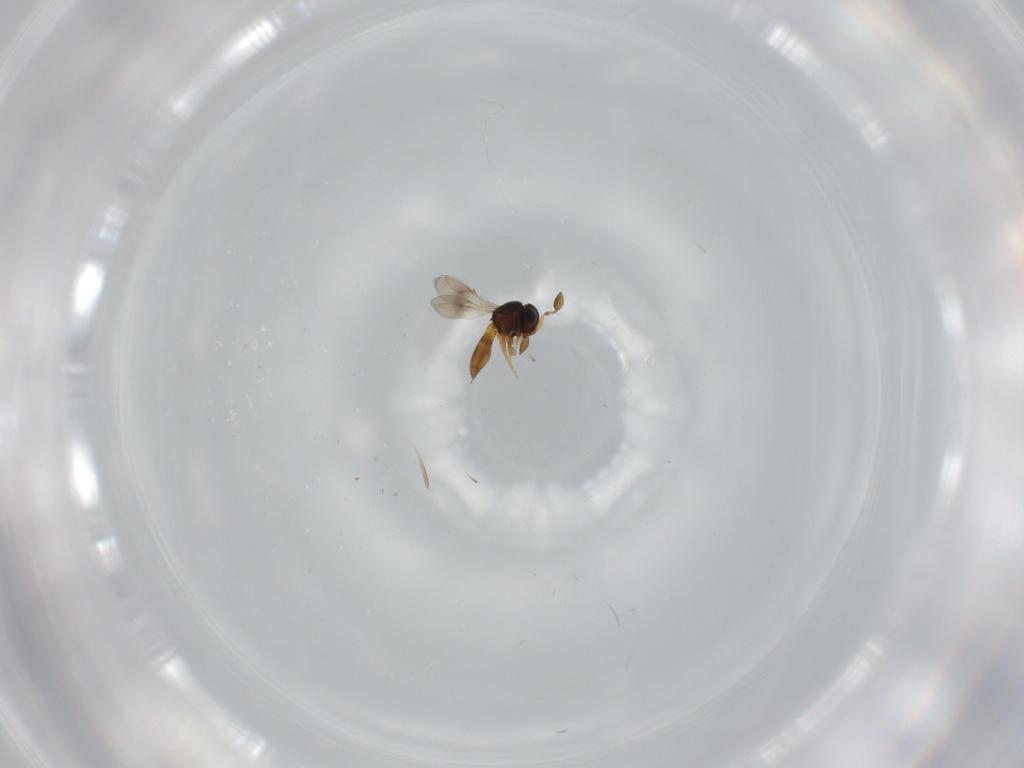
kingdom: Animalia
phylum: Arthropoda
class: Insecta
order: Hymenoptera
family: Scelionidae
